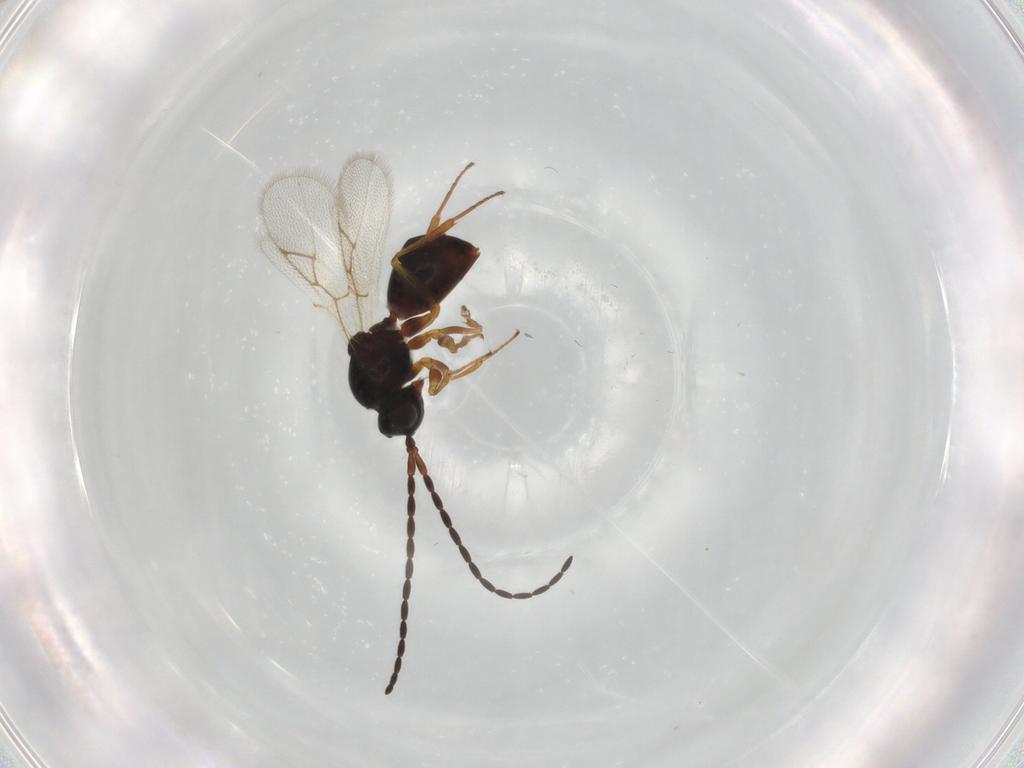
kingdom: Animalia
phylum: Arthropoda
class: Insecta
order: Hymenoptera
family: Figitidae
